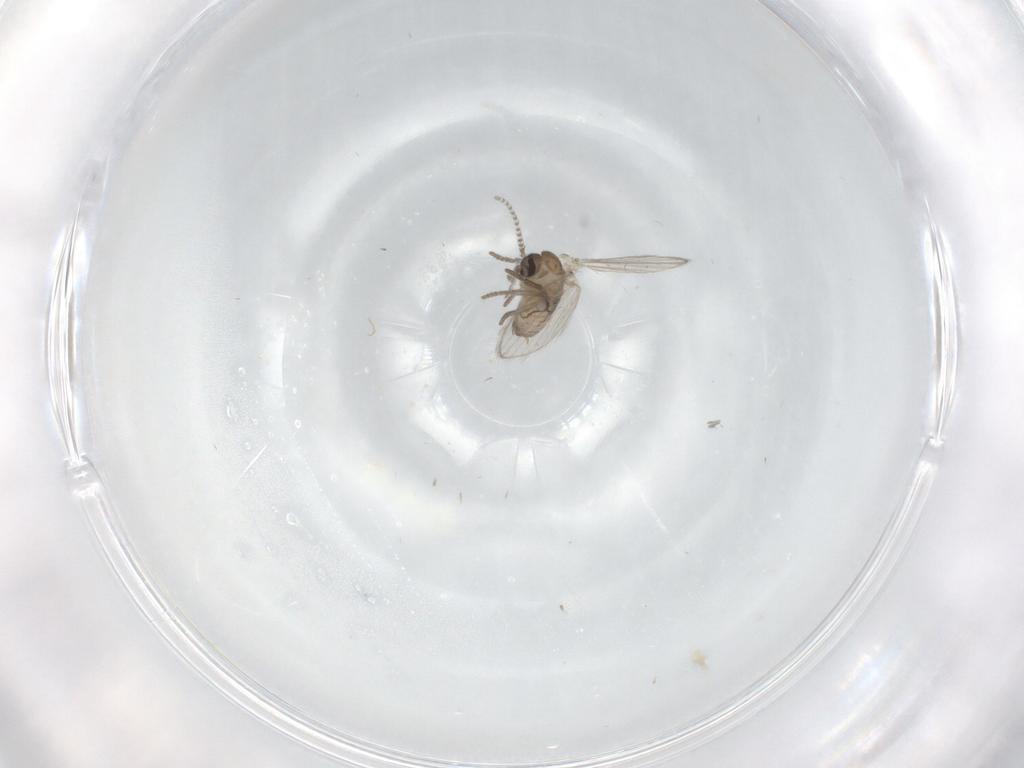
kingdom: Animalia
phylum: Arthropoda
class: Insecta
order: Diptera
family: Psychodidae
